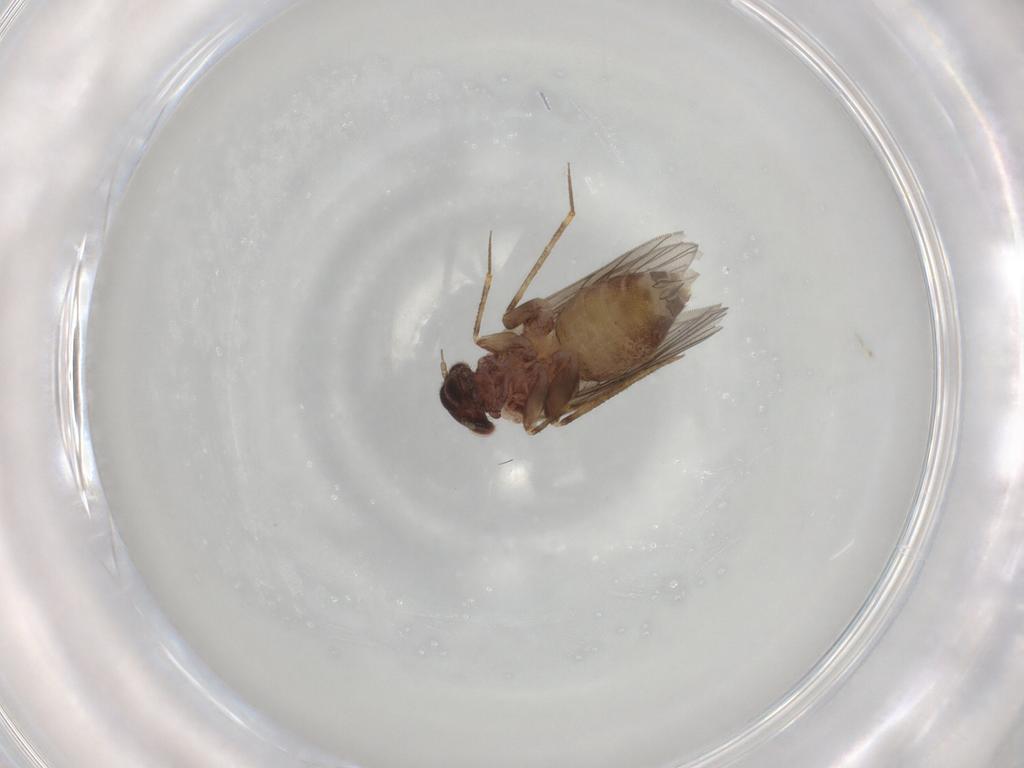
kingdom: Animalia
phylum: Arthropoda
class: Insecta
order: Psocodea
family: Lepidopsocidae
